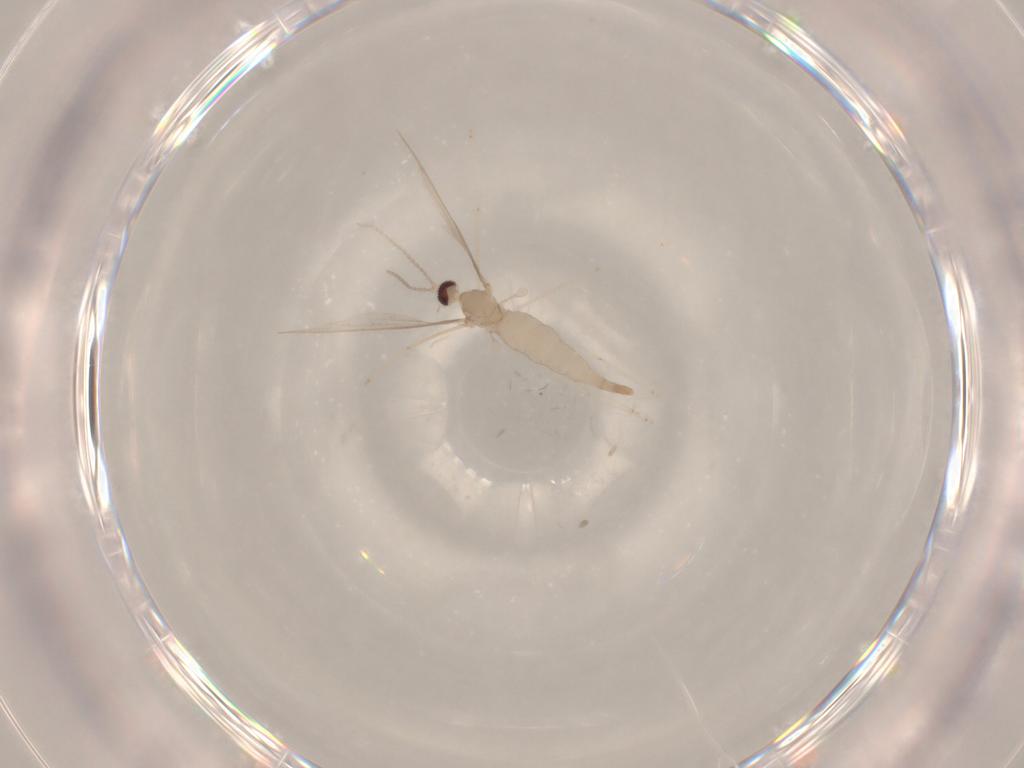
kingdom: Animalia
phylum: Arthropoda
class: Insecta
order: Diptera
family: Cecidomyiidae
